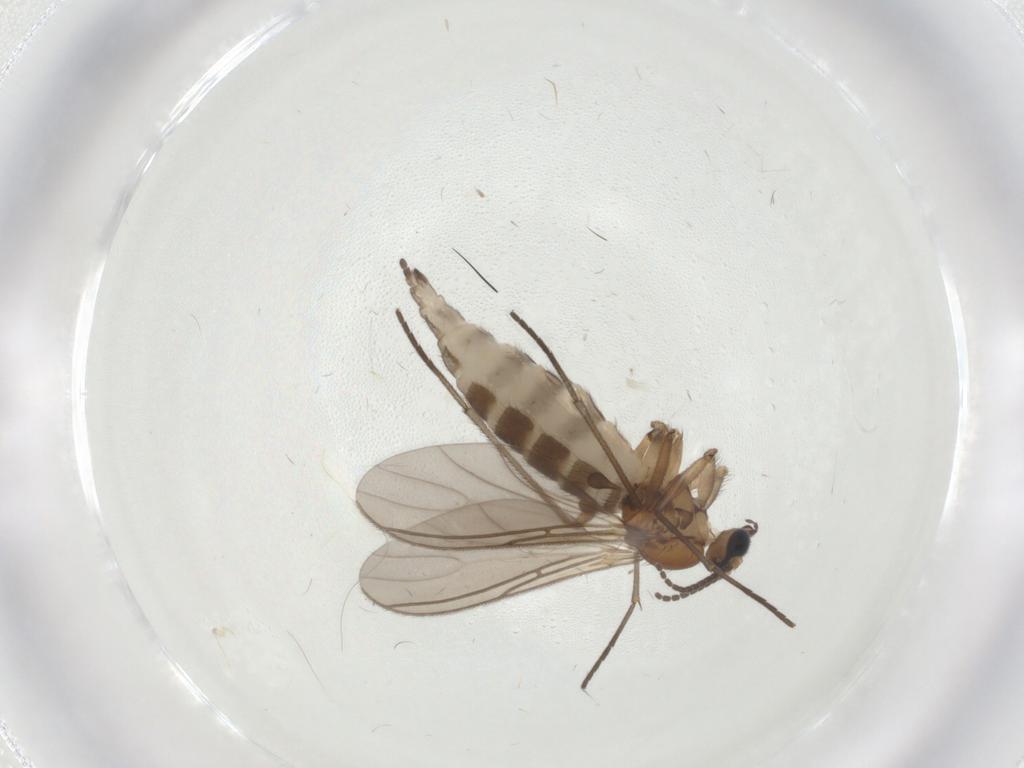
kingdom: Animalia
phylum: Arthropoda
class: Insecta
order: Diptera
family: Sciaridae
